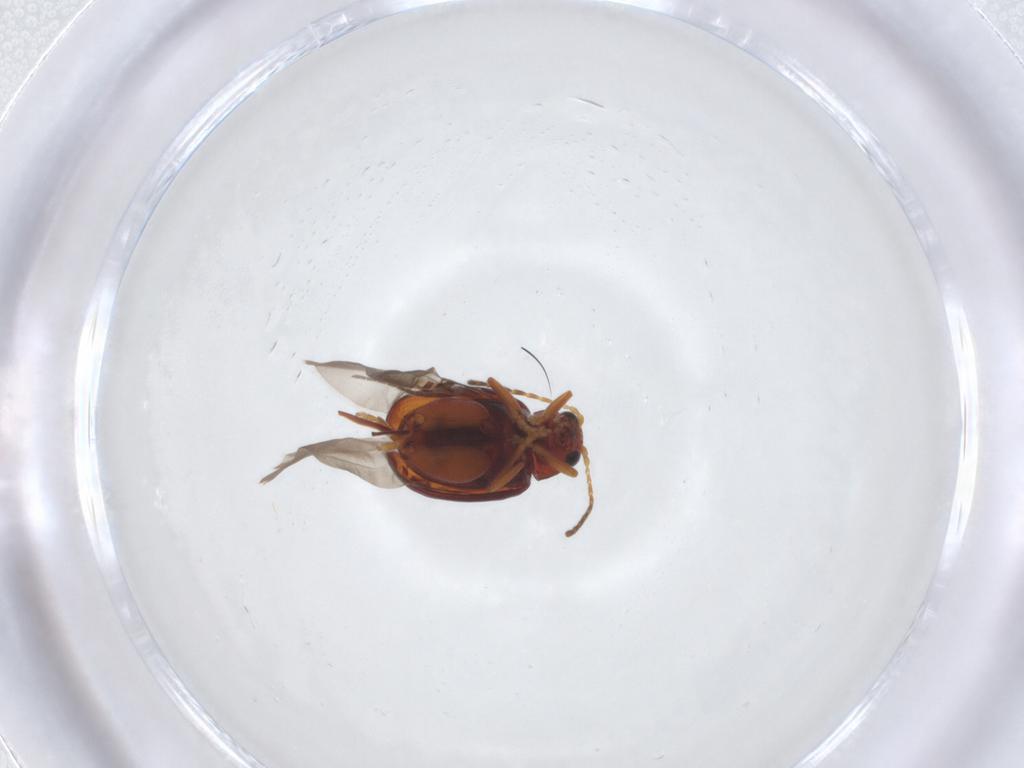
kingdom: Animalia
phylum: Arthropoda
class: Insecta
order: Coleoptera
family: Chrysomelidae
